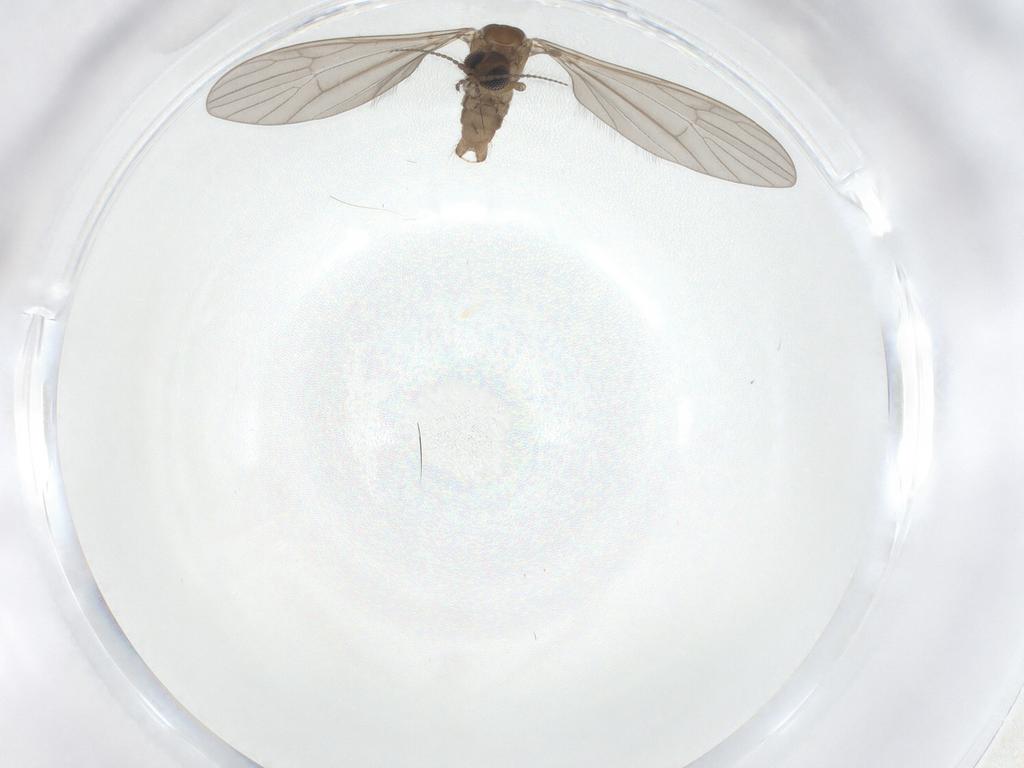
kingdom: Animalia
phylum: Arthropoda
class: Insecta
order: Diptera
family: Limoniidae
